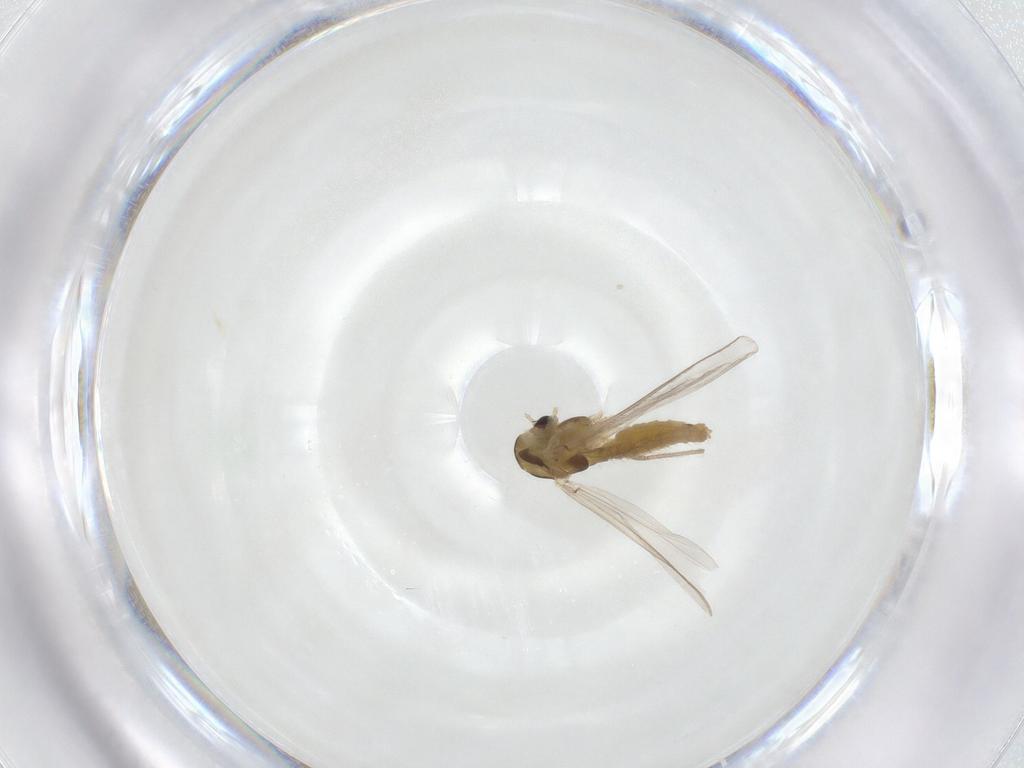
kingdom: Animalia
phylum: Arthropoda
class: Insecta
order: Diptera
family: Chironomidae
